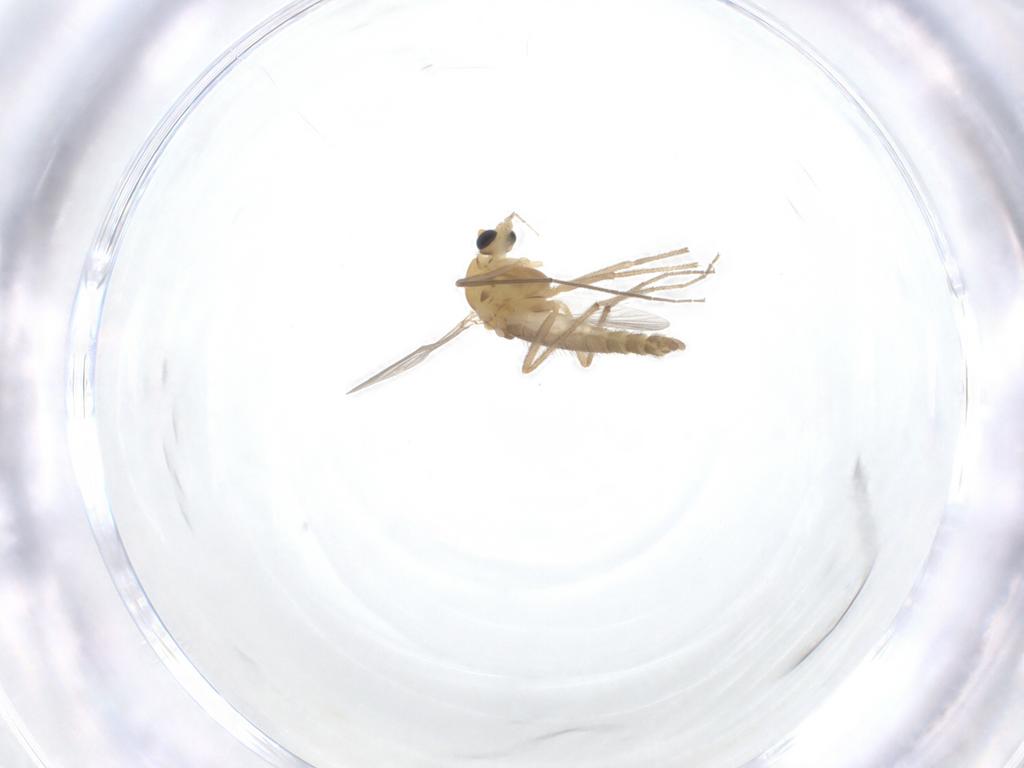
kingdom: Animalia
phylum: Arthropoda
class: Insecta
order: Diptera
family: Chironomidae
